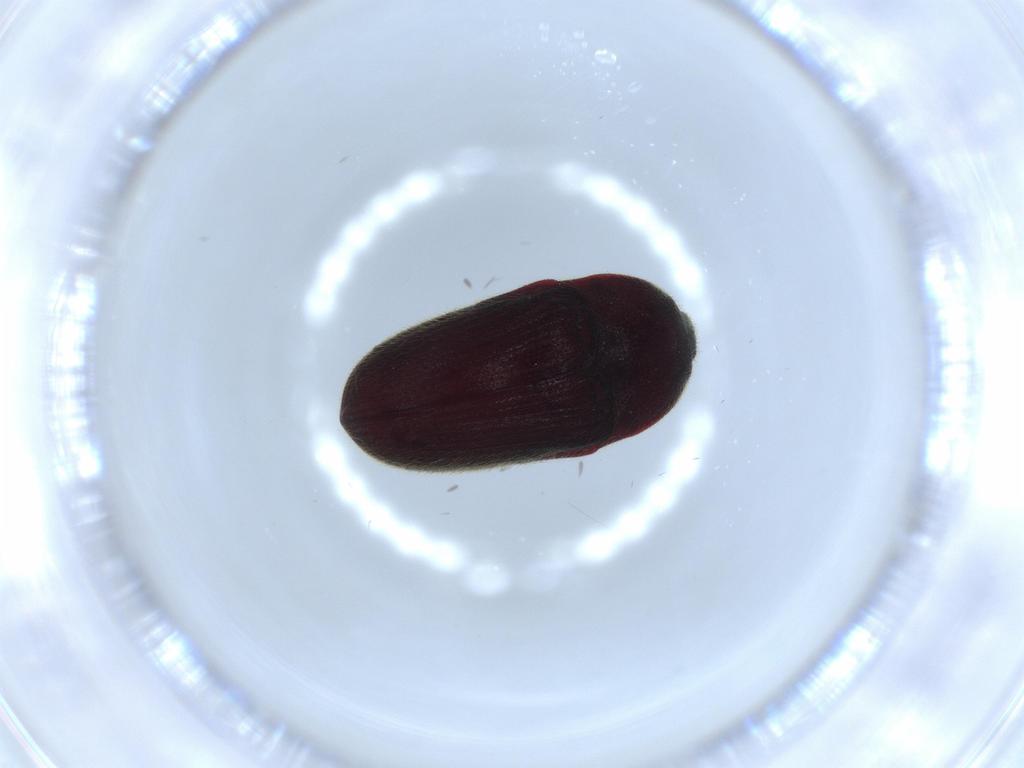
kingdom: Animalia
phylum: Arthropoda
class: Insecta
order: Coleoptera
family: Throscidae
